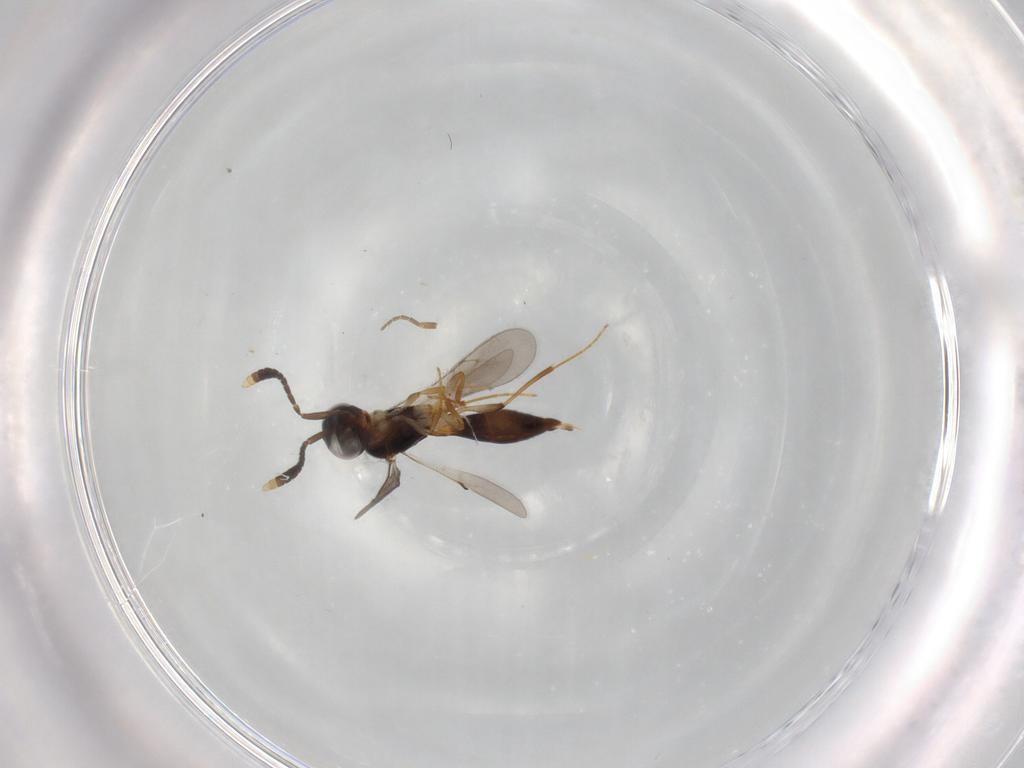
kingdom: Animalia
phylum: Arthropoda
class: Insecta
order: Hymenoptera
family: Scelionidae
